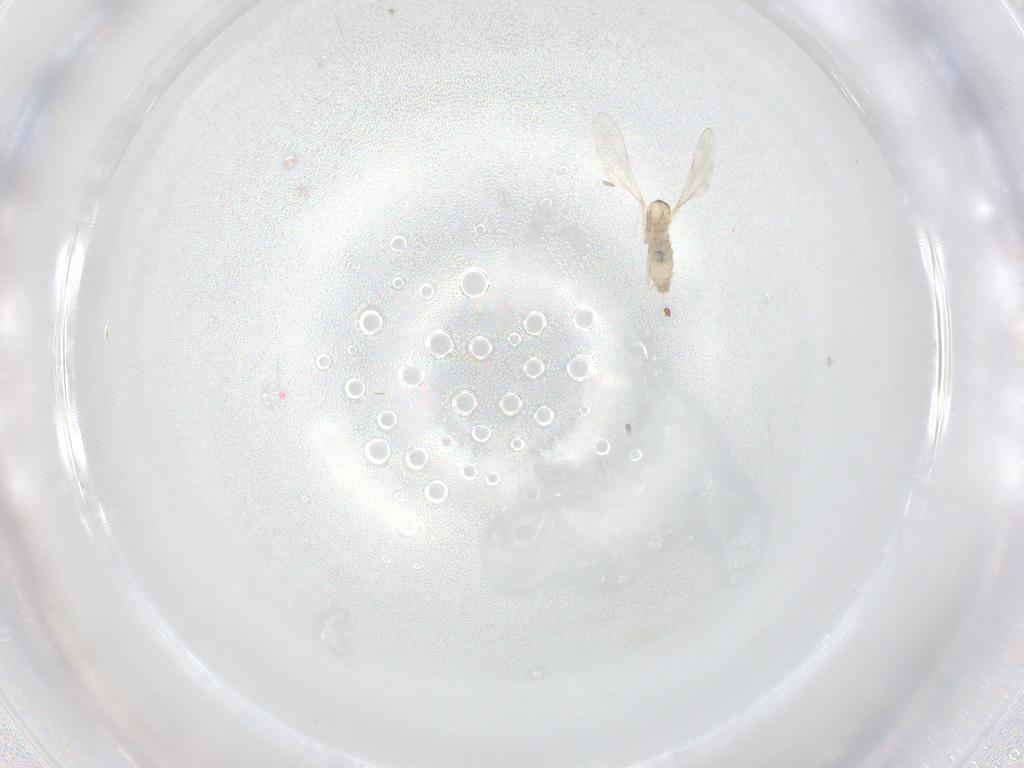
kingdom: Animalia
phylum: Arthropoda
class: Insecta
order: Diptera
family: Cecidomyiidae
